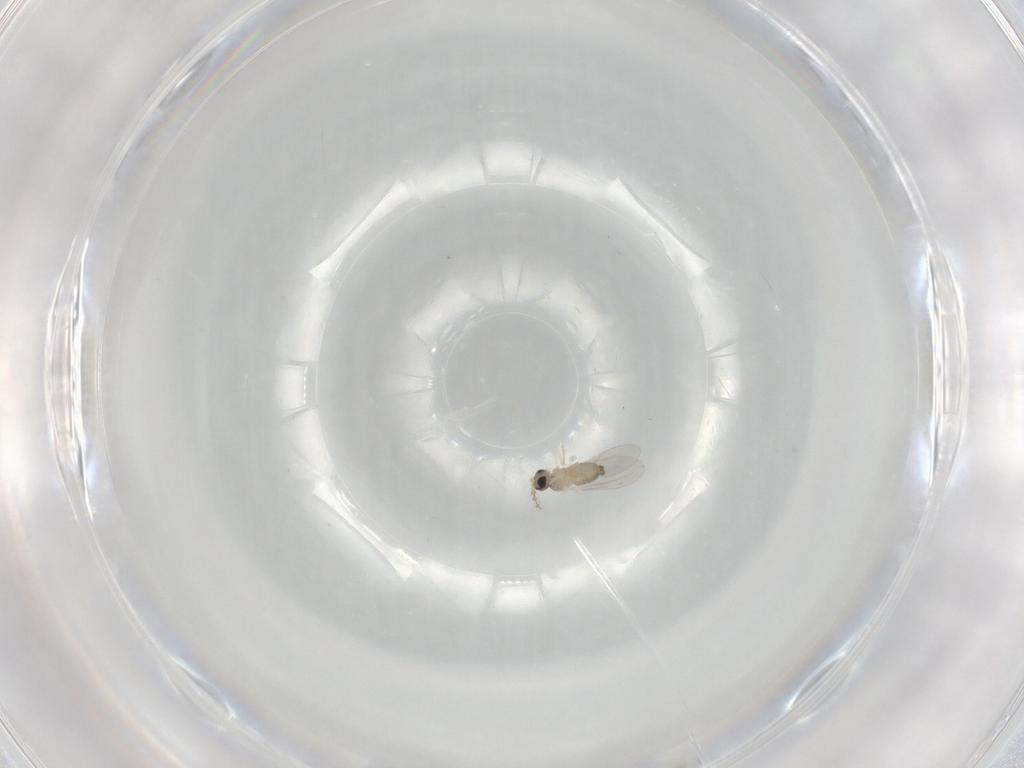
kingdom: Animalia
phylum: Arthropoda
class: Insecta
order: Diptera
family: Cecidomyiidae
